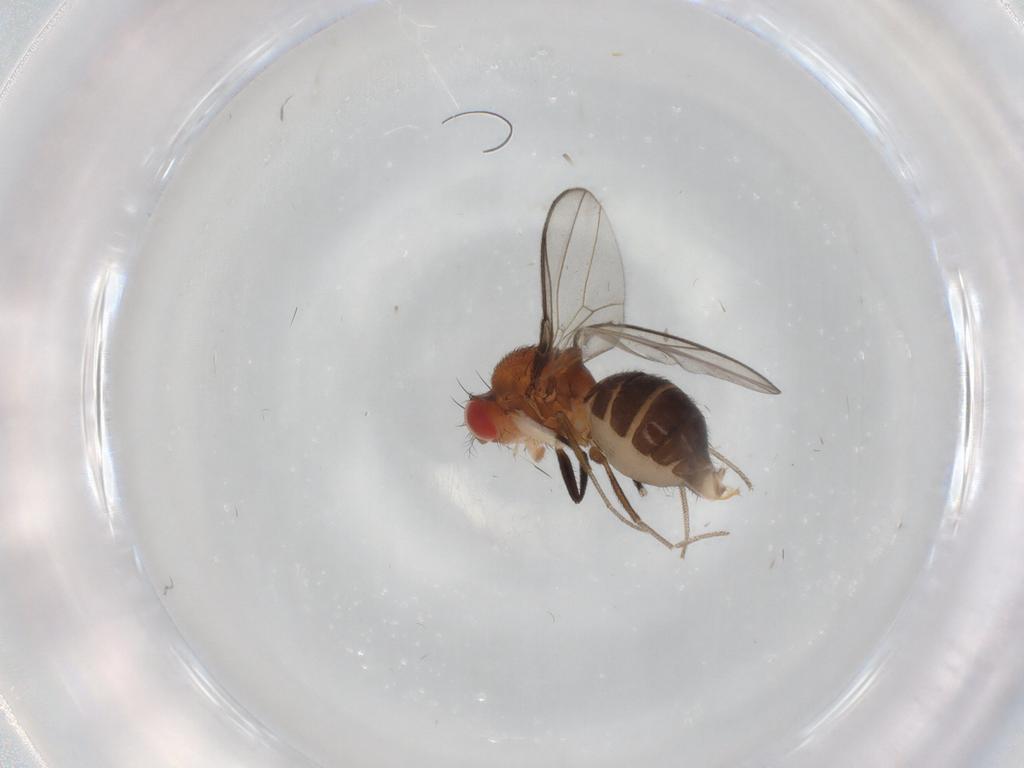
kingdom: Animalia
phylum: Arthropoda
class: Insecta
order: Diptera
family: Drosophilidae
